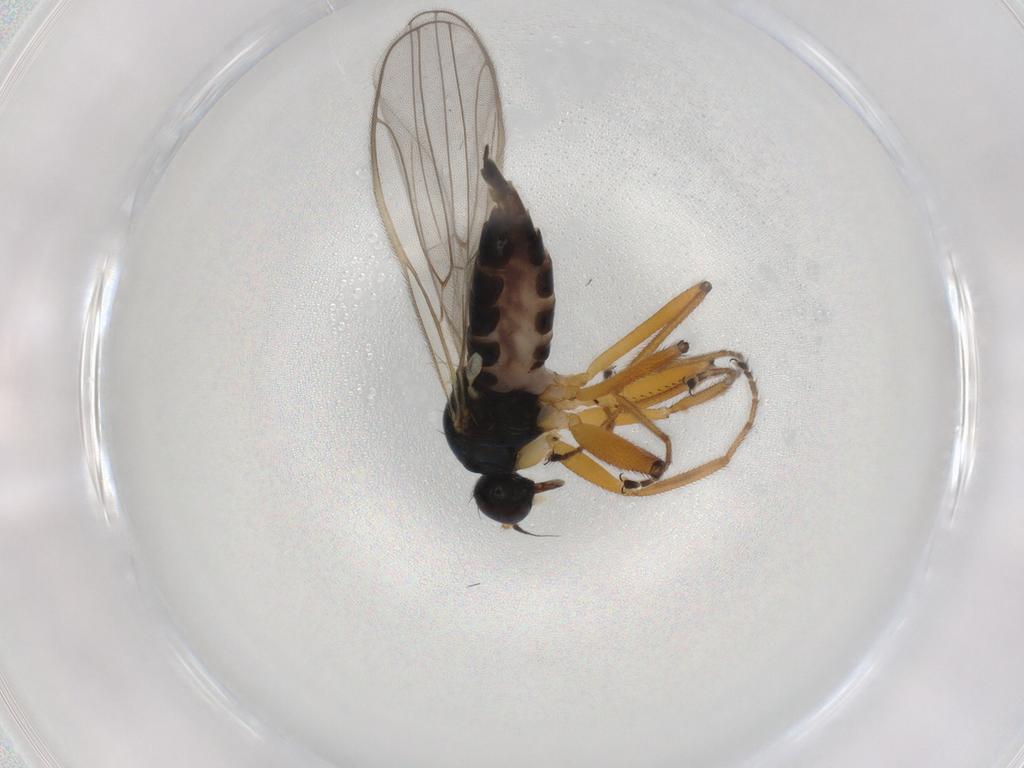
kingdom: Animalia
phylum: Arthropoda
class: Insecta
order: Diptera
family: Hybotidae
